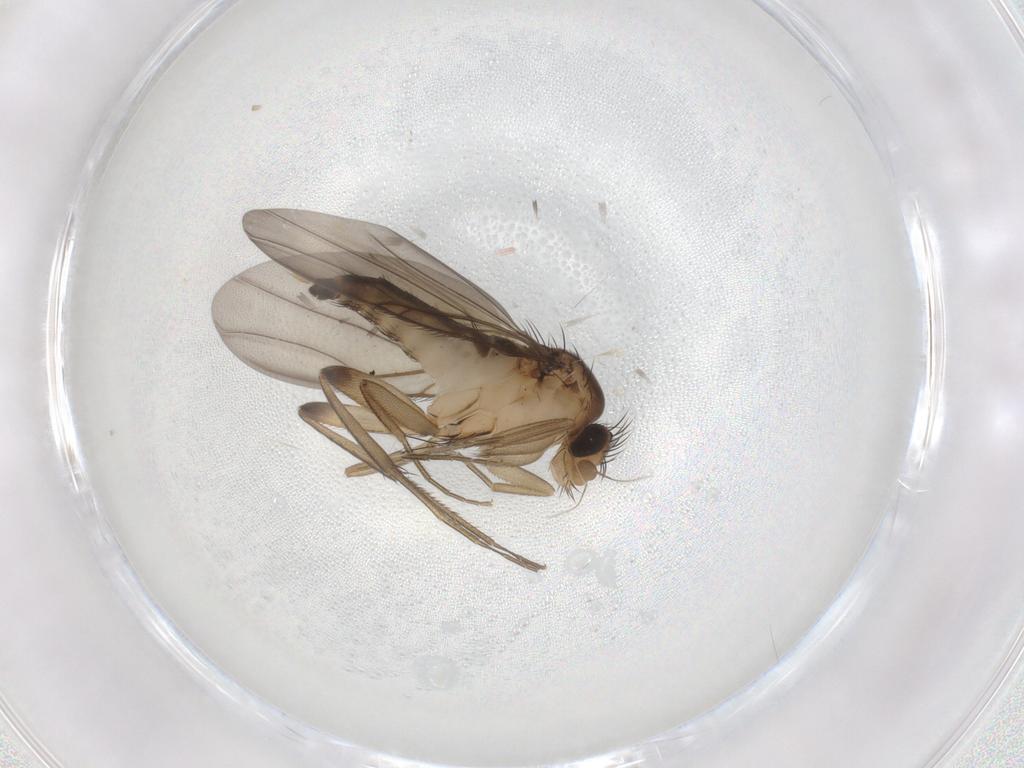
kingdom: Animalia
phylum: Arthropoda
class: Insecta
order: Diptera
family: Phoridae
